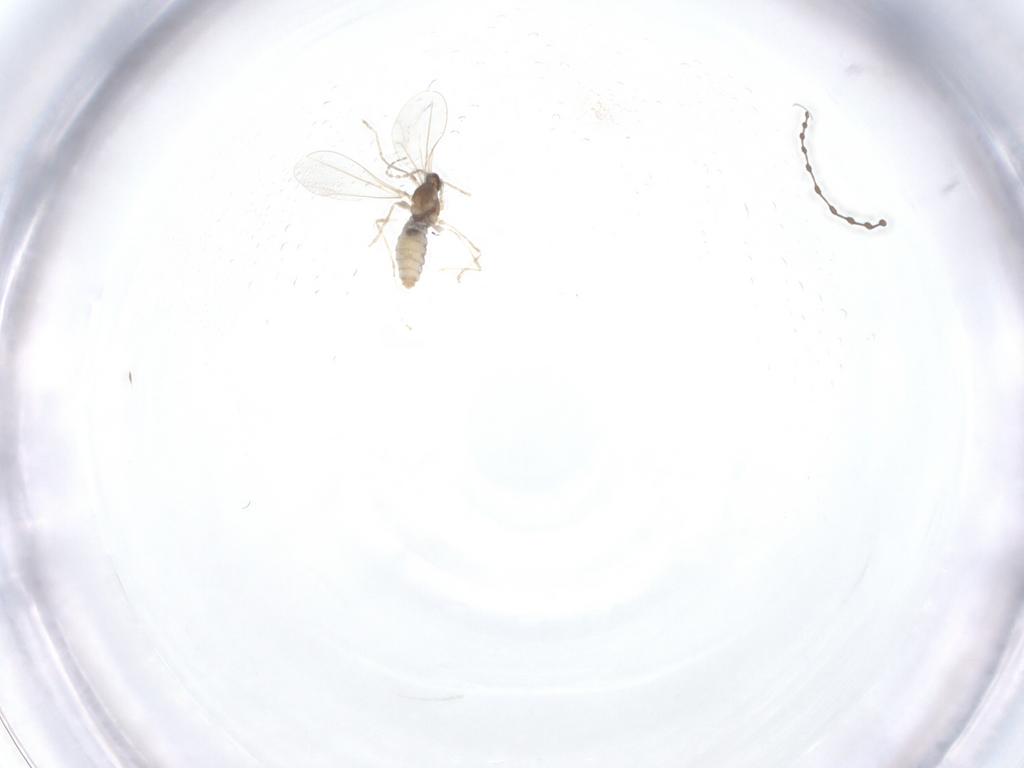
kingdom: Animalia
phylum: Arthropoda
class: Insecta
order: Diptera
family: Cecidomyiidae
